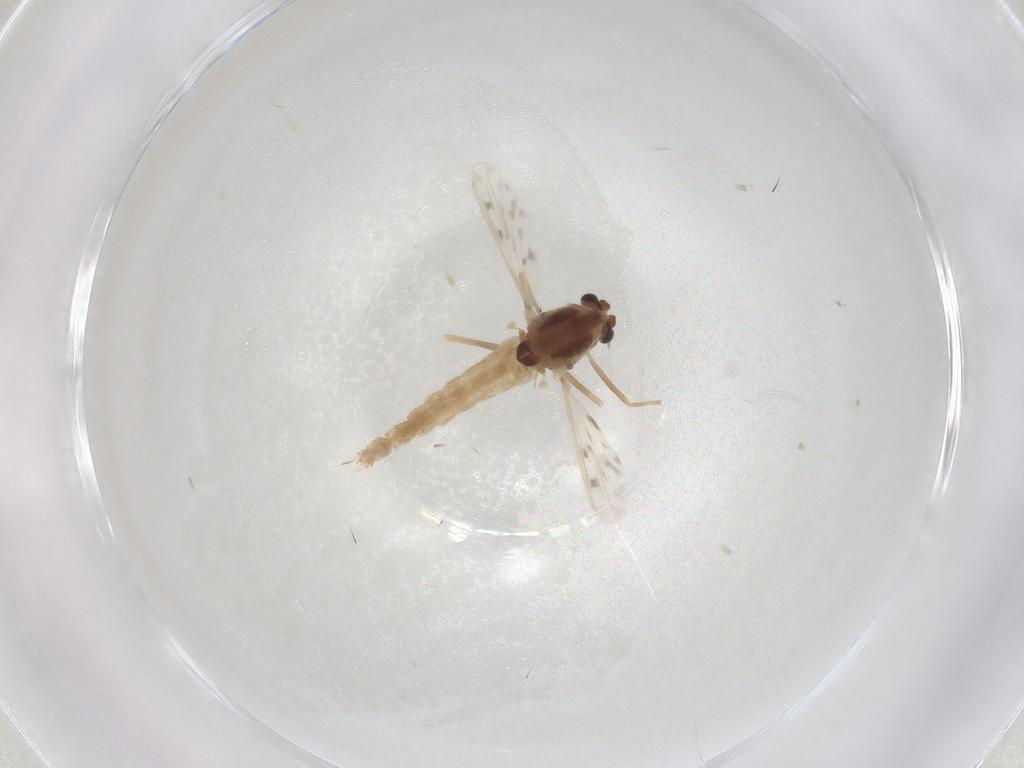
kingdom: Animalia
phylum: Arthropoda
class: Insecta
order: Diptera
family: Chironomidae
